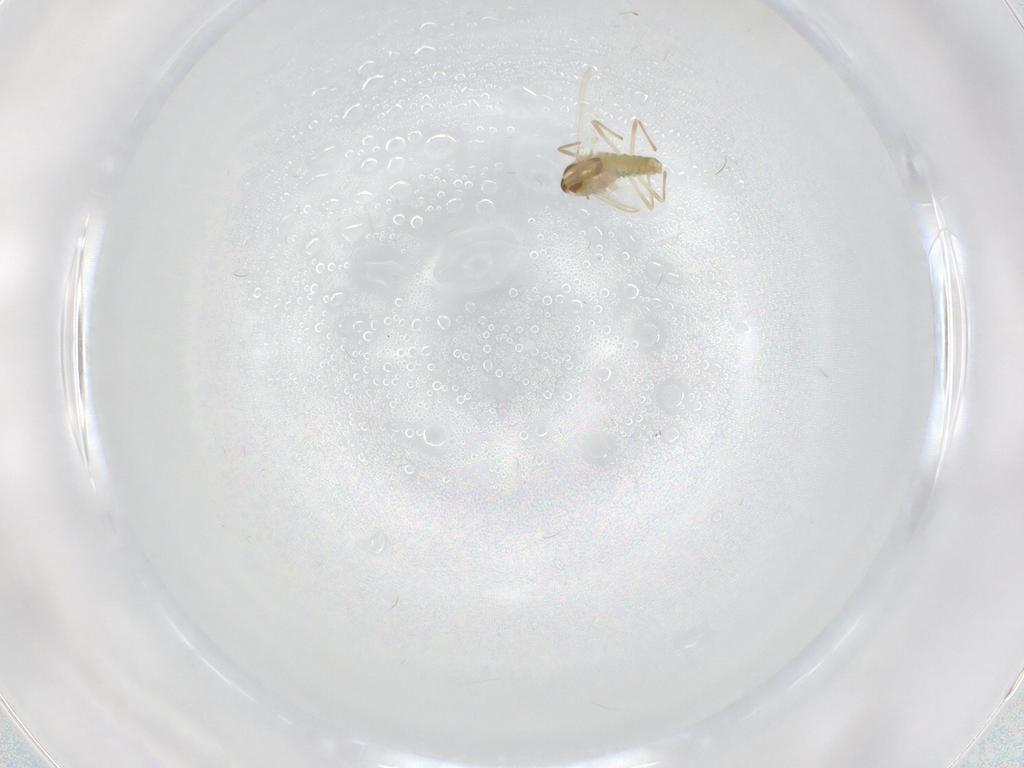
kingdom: Animalia
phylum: Arthropoda
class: Insecta
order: Diptera
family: Chironomidae
